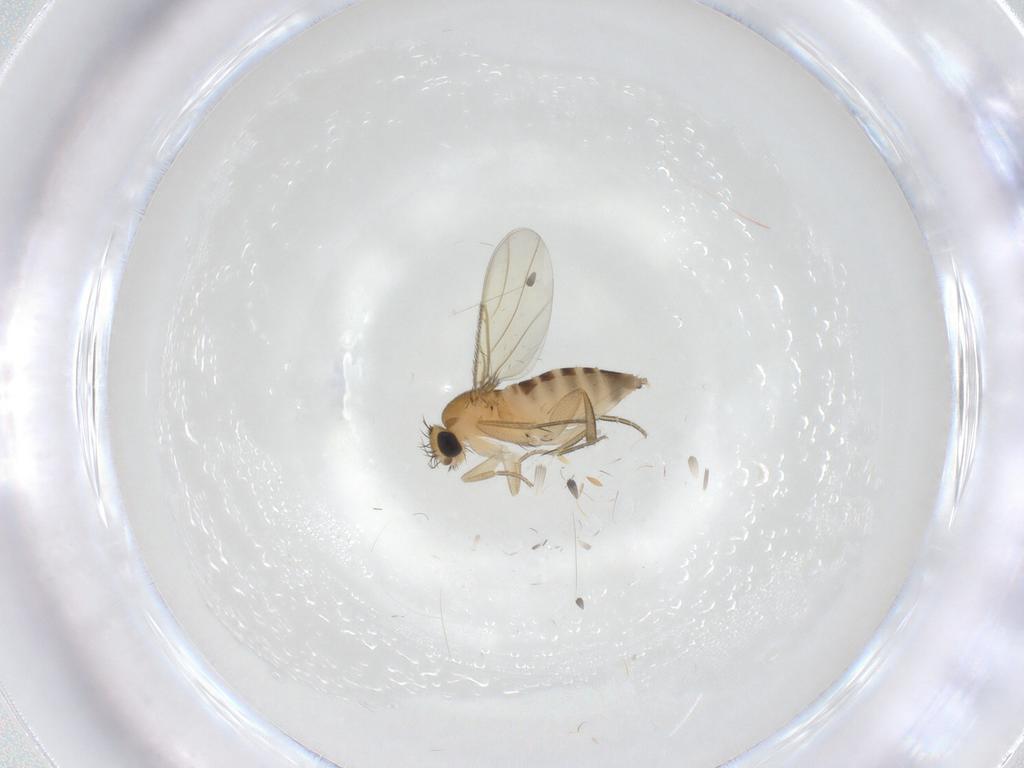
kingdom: Animalia
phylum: Arthropoda
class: Insecta
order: Diptera
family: Phoridae
